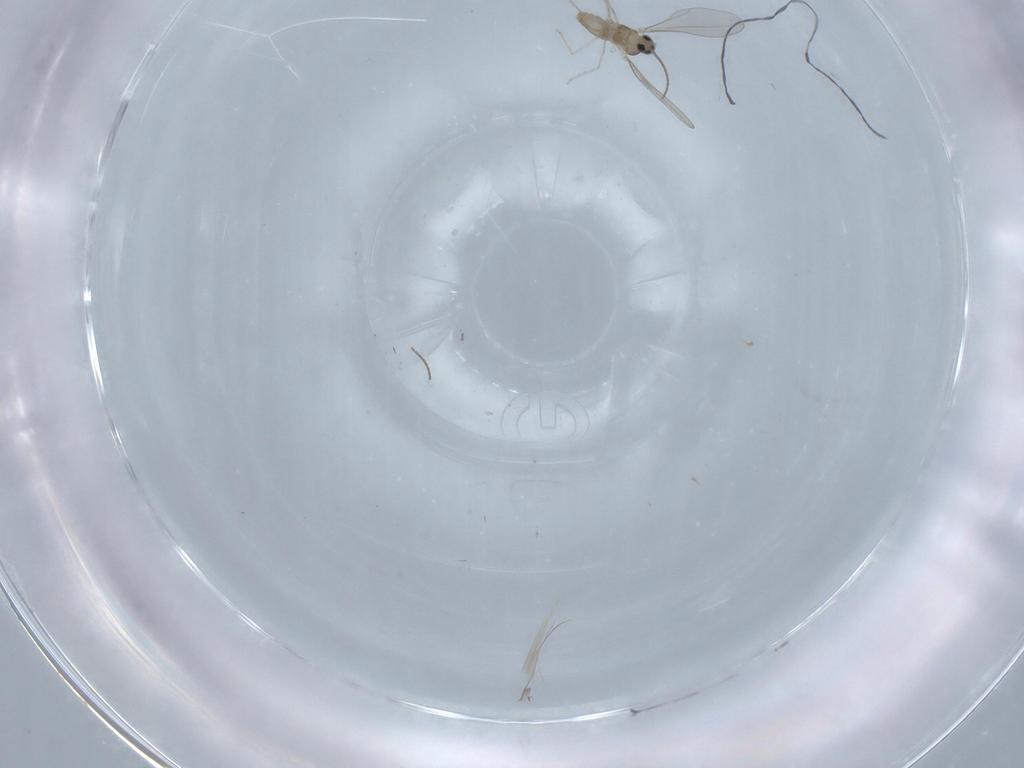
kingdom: Animalia
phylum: Arthropoda
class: Insecta
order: Diptera
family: Cecidomyiidae
